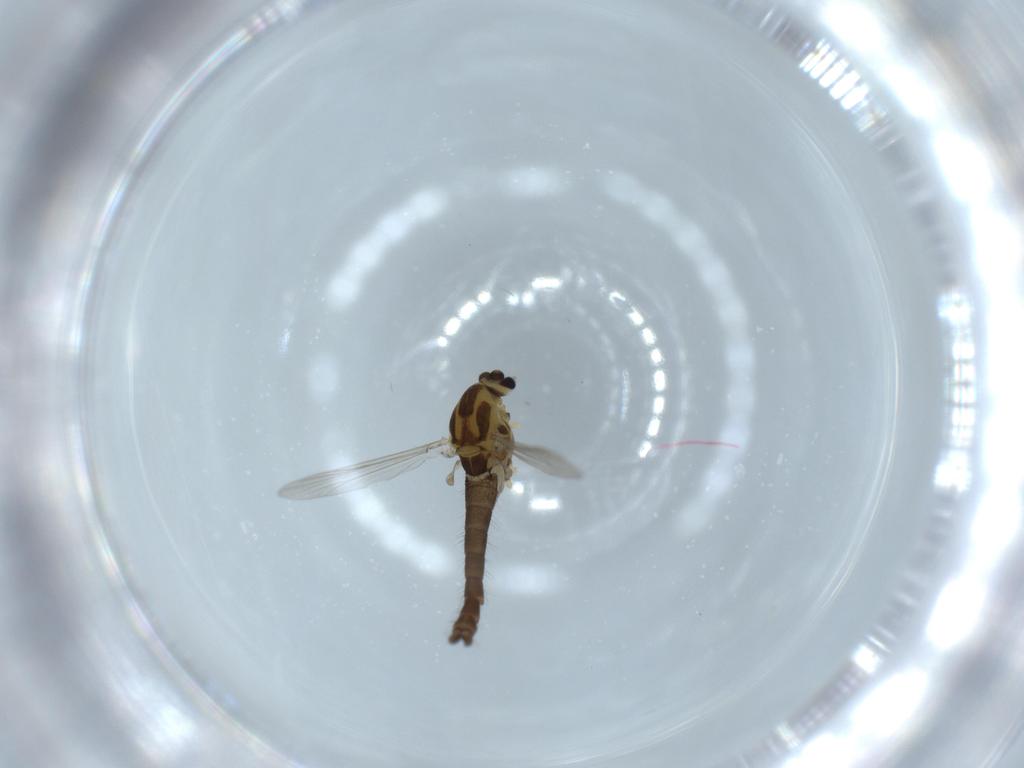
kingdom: Animalia
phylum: Arthropoda
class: Insecta
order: Diptera
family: Chironomidae
